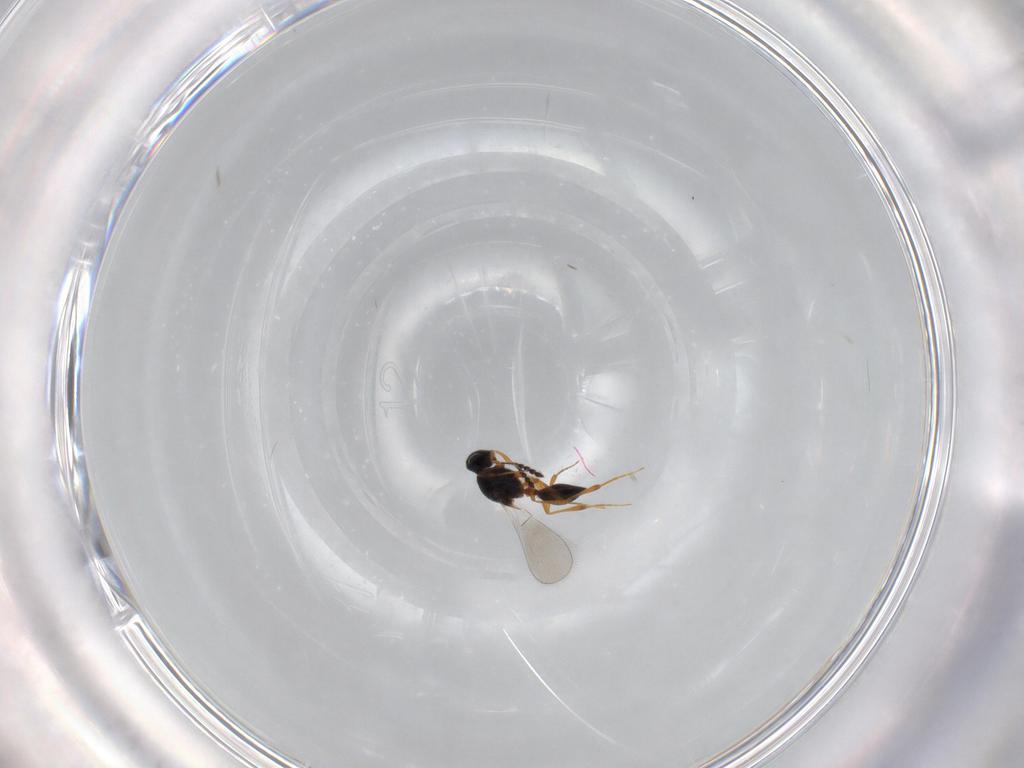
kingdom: Animalia
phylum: Arthropoda
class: Insecta
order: Hymenoptera
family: Platygastridae
